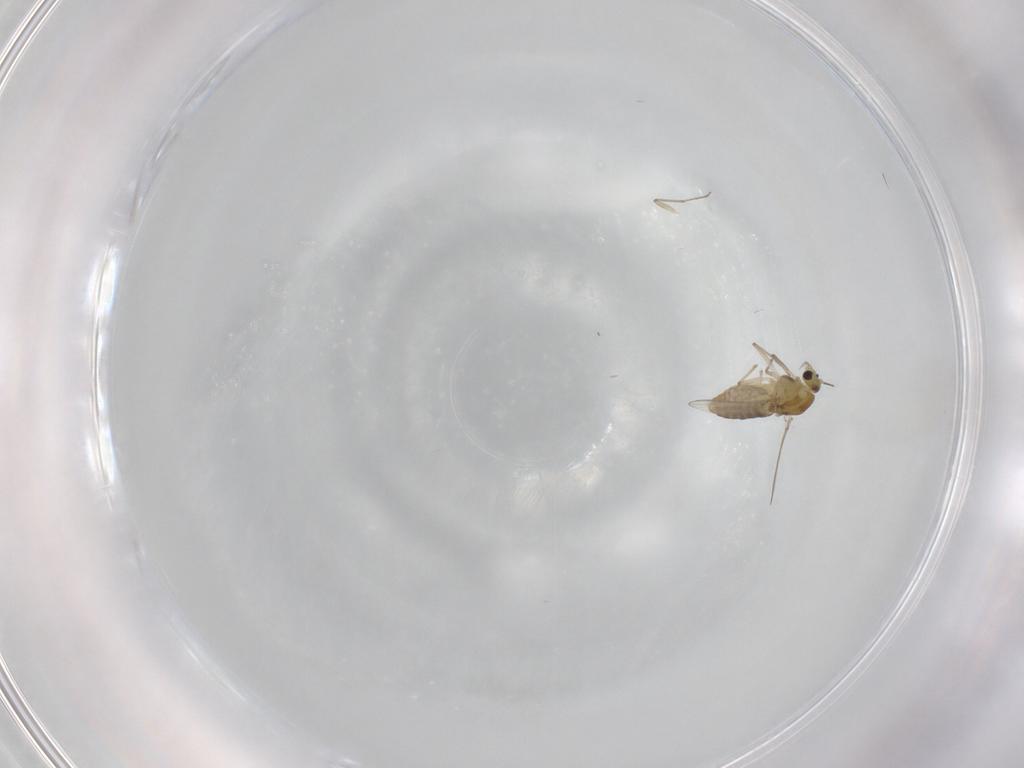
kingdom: Animalia
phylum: Arthropoda
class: Insecta
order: Diptera
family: Chironomidae
